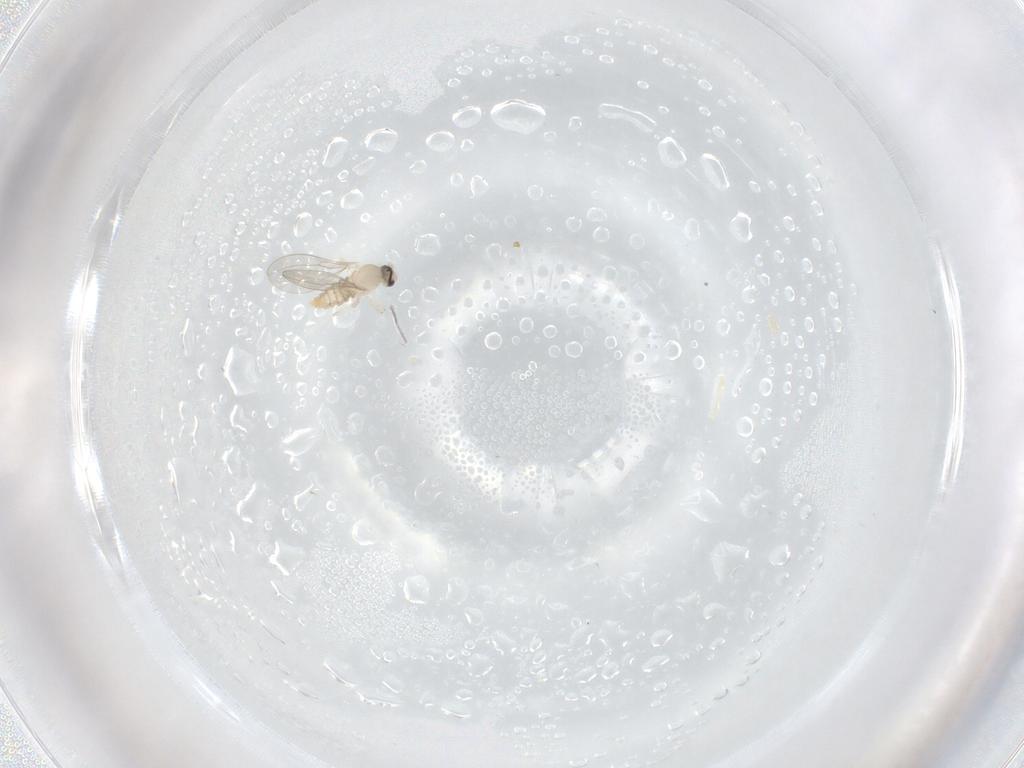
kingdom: Animalia
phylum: Arthropoda
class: Insecta
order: Diptera
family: Cecidomyiidae
